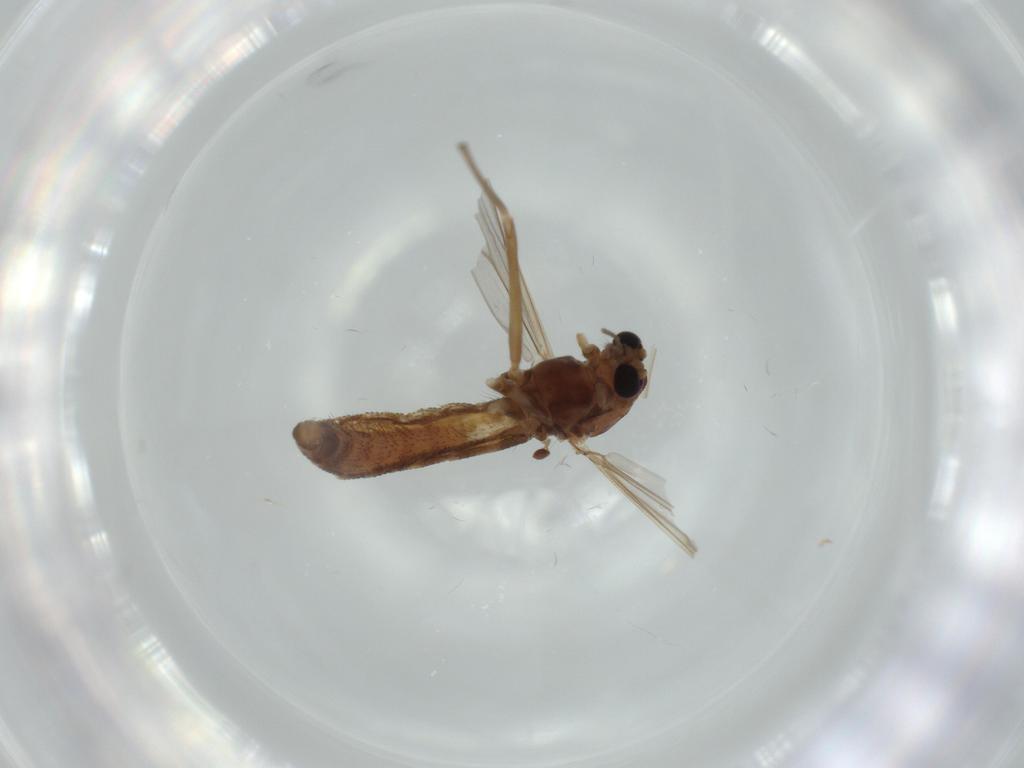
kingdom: Animalia
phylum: Arthropoda
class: Insecta
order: Diptera
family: Chironomidae
